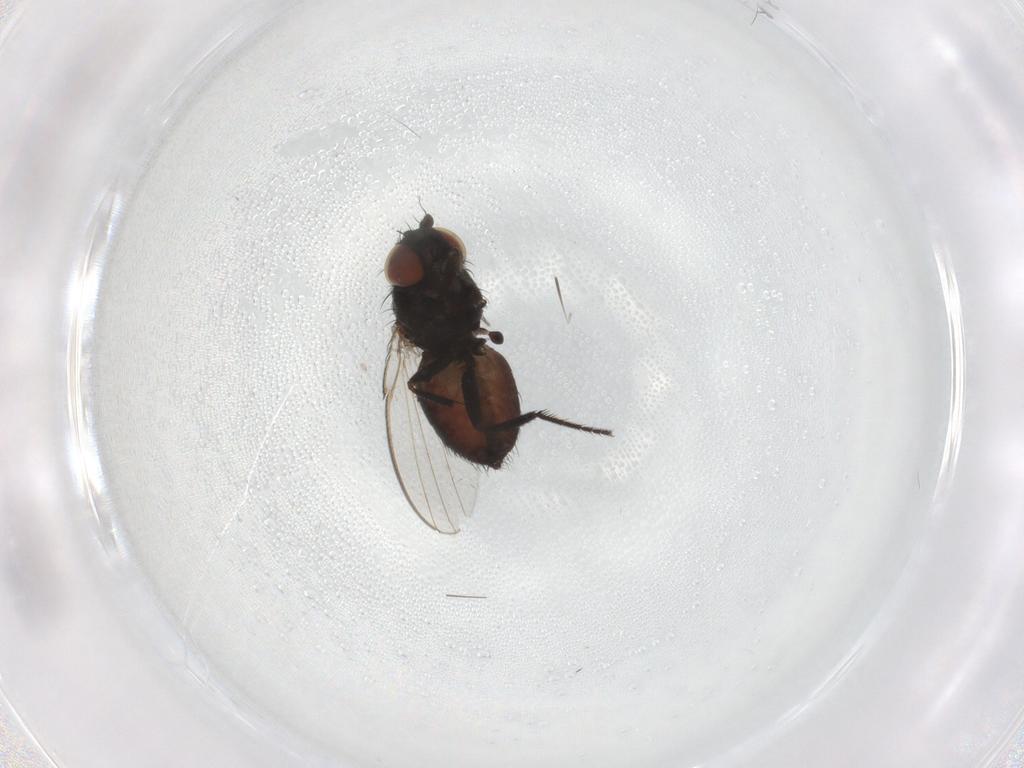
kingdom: Animalia
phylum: Arthropoda
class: Insecta
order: Diptera
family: Milichiidae
